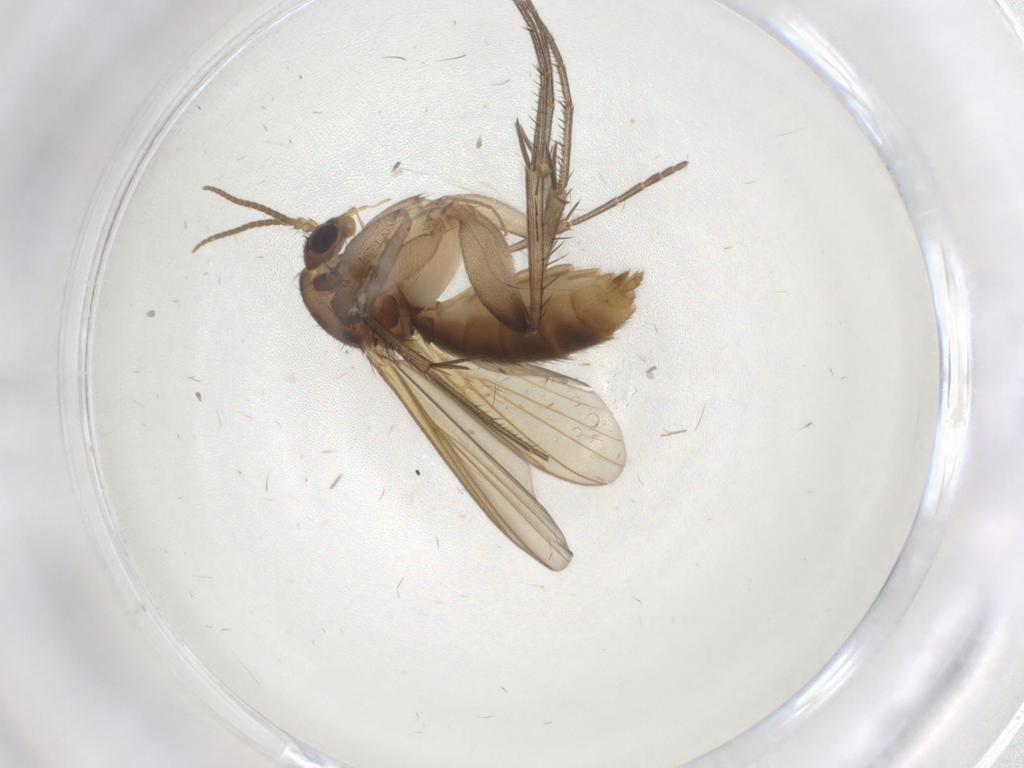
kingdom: Animalia
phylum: Arthropoda
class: Insecta
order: Diptera
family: Mycetophilidae
